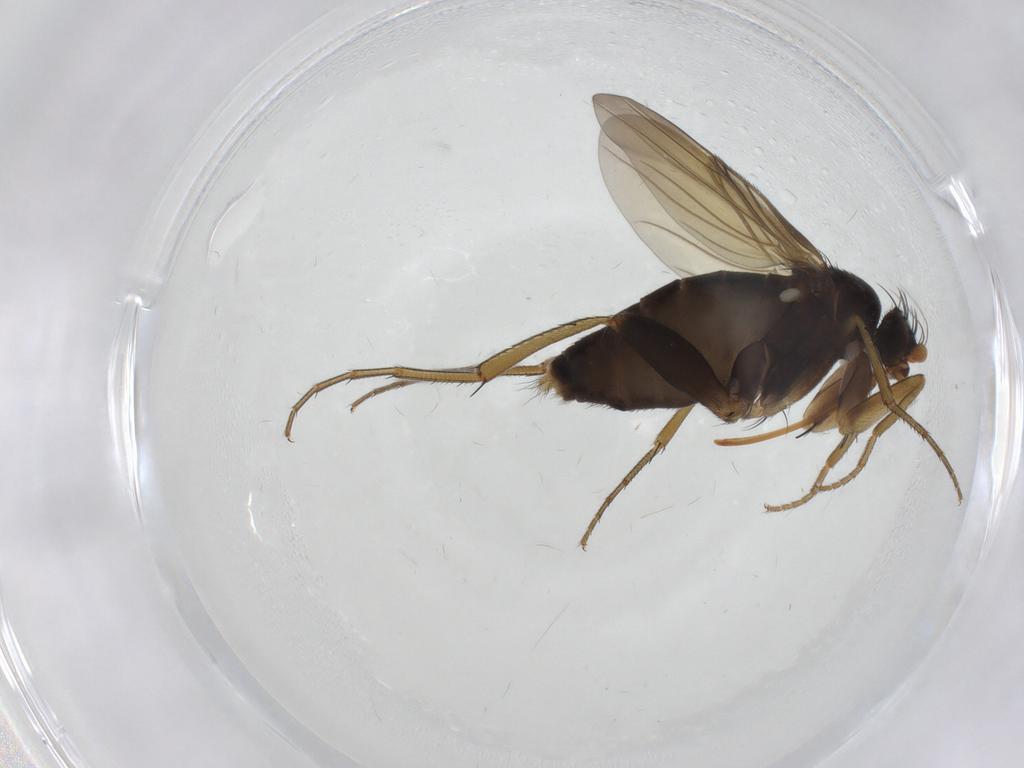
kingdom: Animalia
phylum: Arthropoda
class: Insecta
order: Diptera
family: Phoridae
